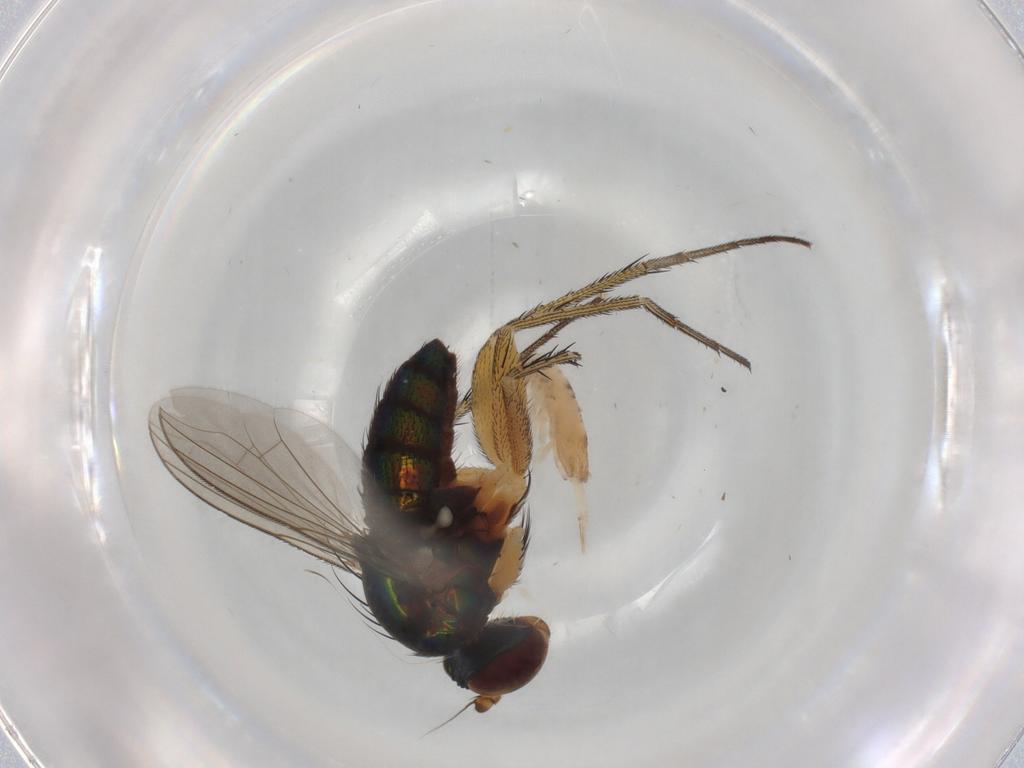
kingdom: Animalia
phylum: Arthropoda
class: Insecta
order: Diptera
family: Dolichopodidae
